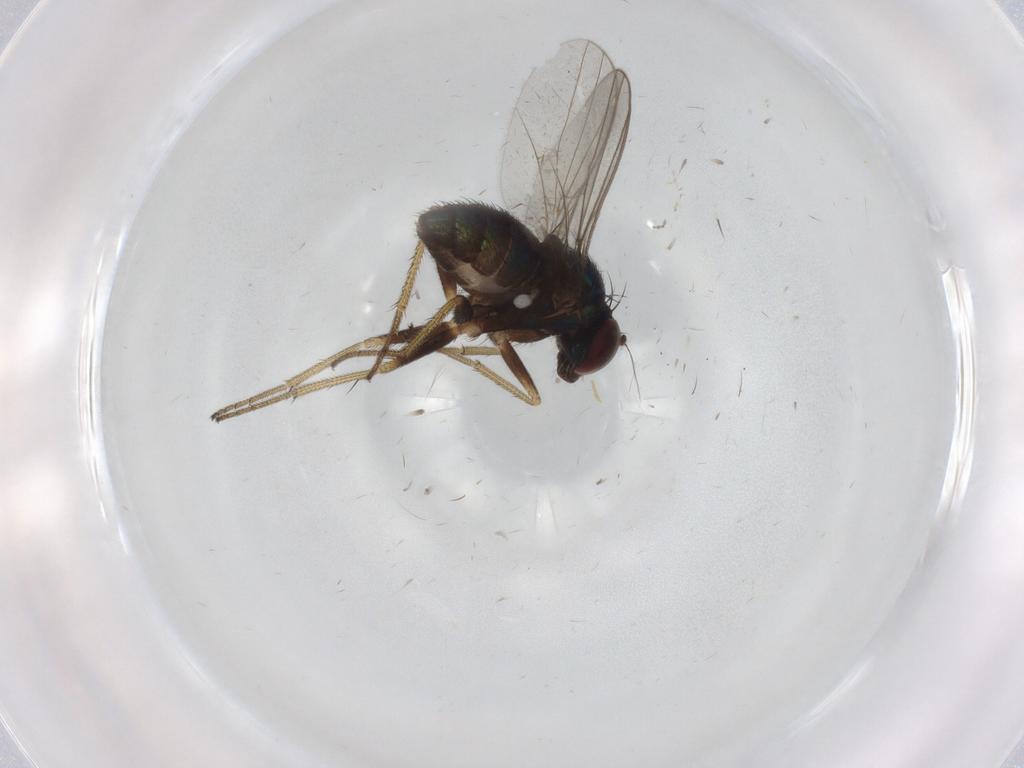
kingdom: Animalia
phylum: Arthropoda
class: Insecta
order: Diptera
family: Dolichopodidae
